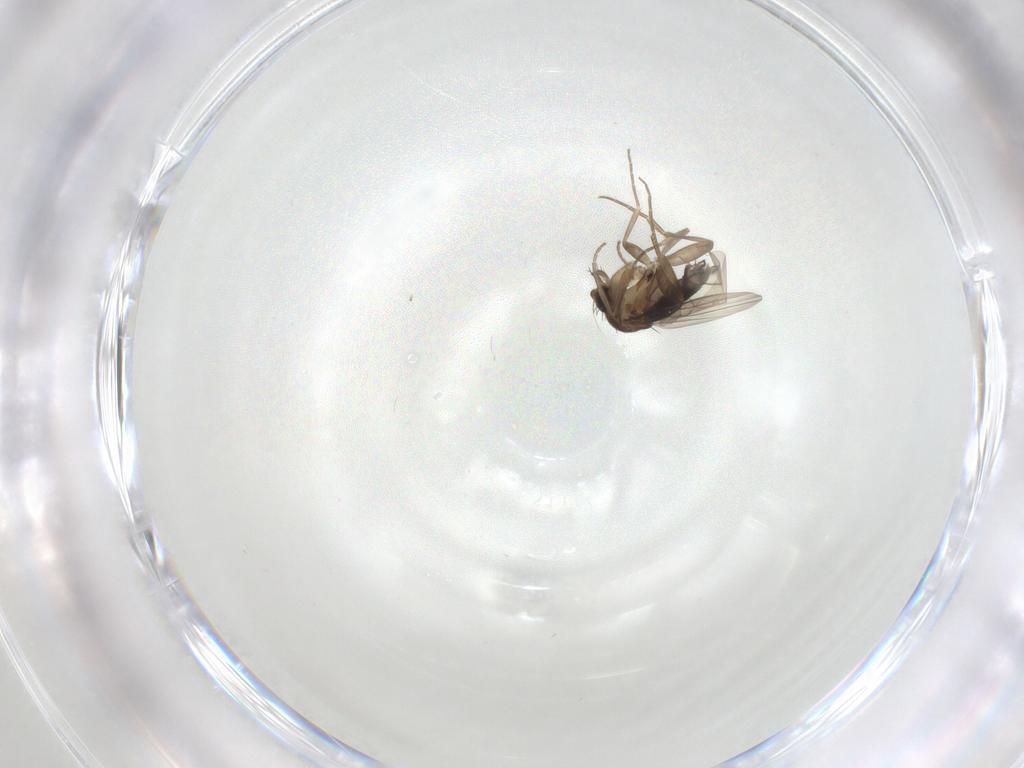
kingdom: Animalia
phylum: Arthropoda
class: Insecta
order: Diptera
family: Phoridae
